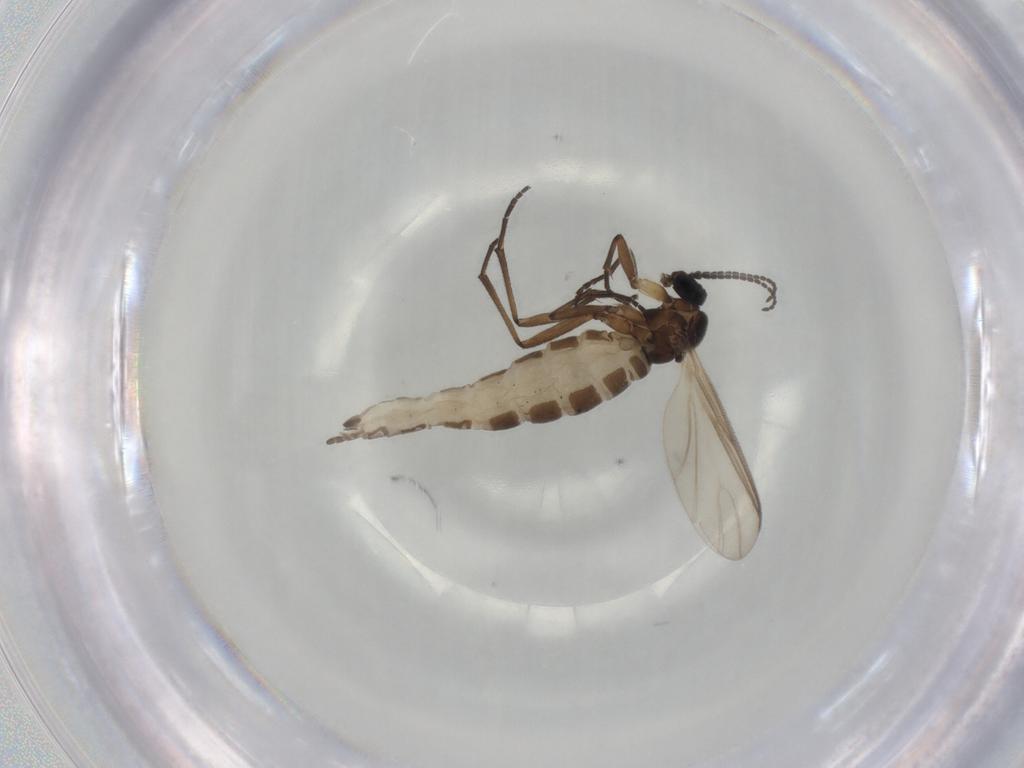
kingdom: Animalia
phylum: Arthropoda
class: Insecta
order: Diptera
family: Sciaridae
